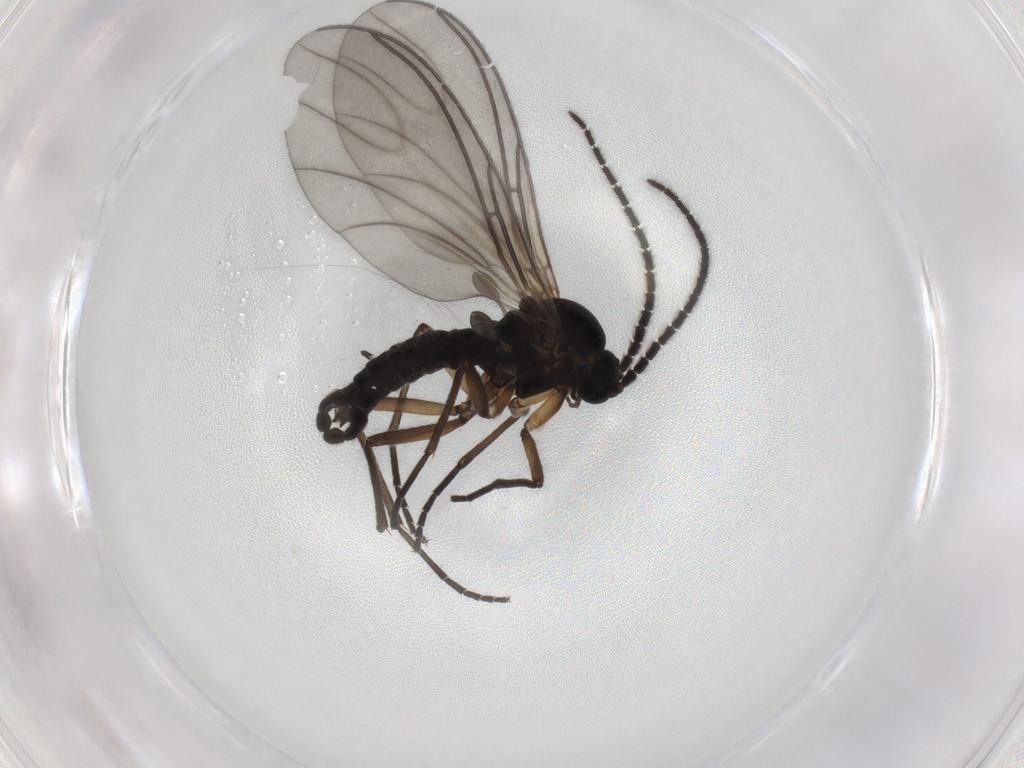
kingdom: Animalia
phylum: Arthropoda
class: Insecta
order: Diptera
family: Sciaridae
